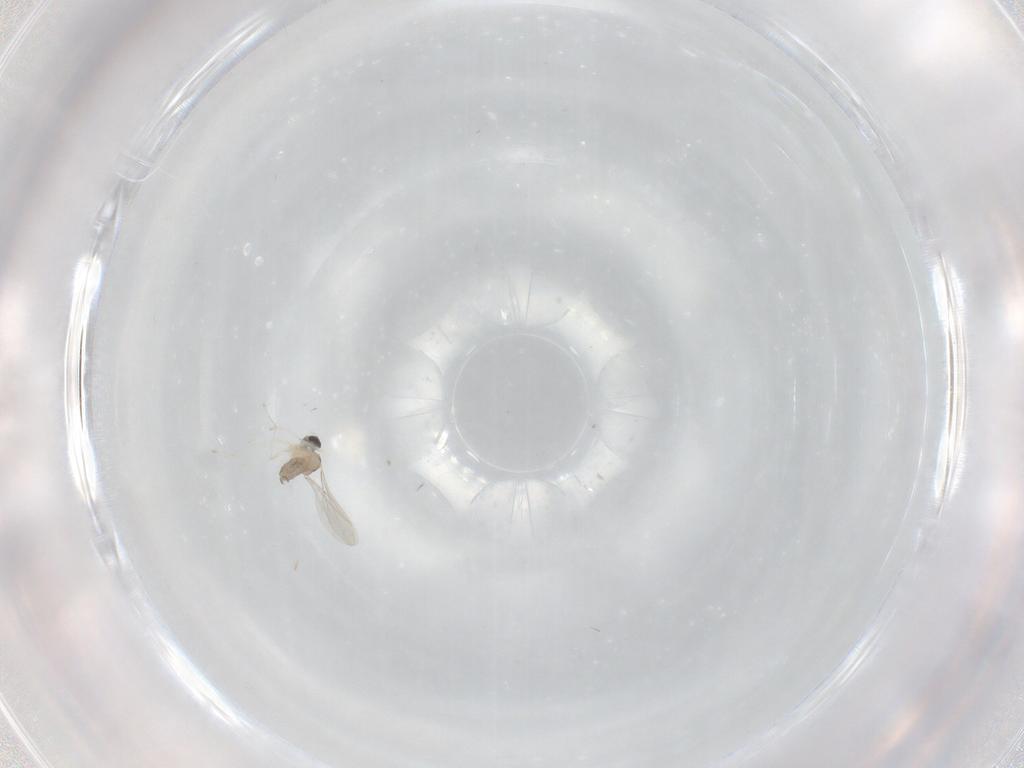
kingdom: Animalia
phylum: Arthropoda
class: Insecta
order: Diptera
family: Cecidomyiidae
